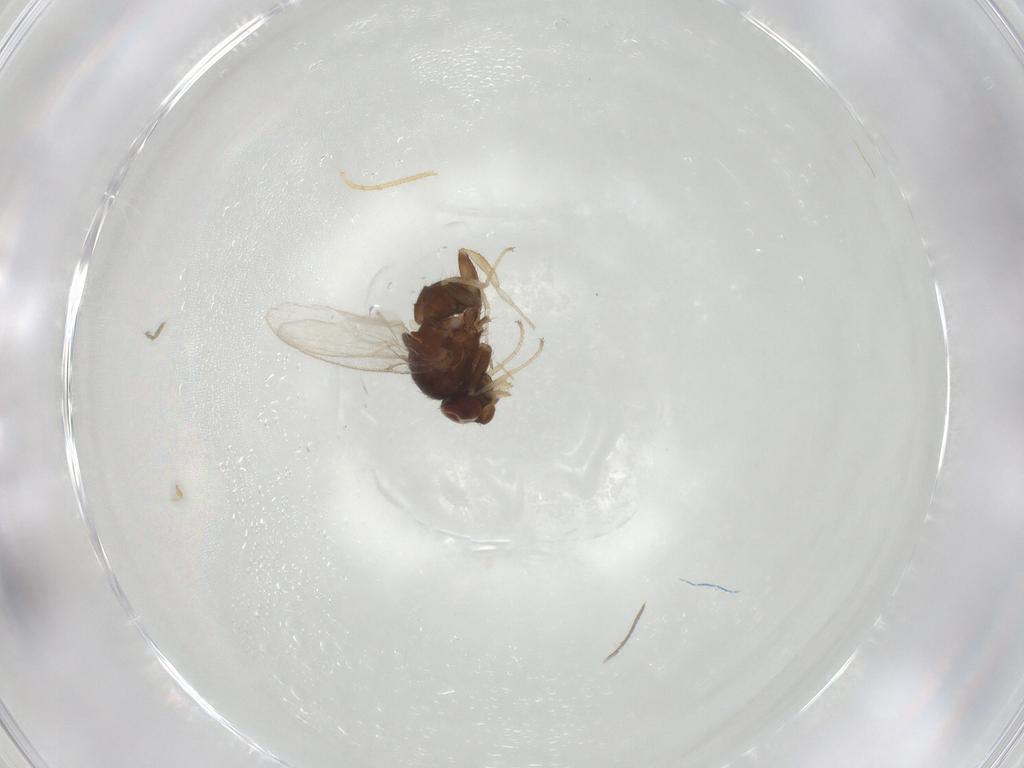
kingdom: Animalia
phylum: Arthropoda
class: Insecta
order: Diptera
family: Milichiidae
